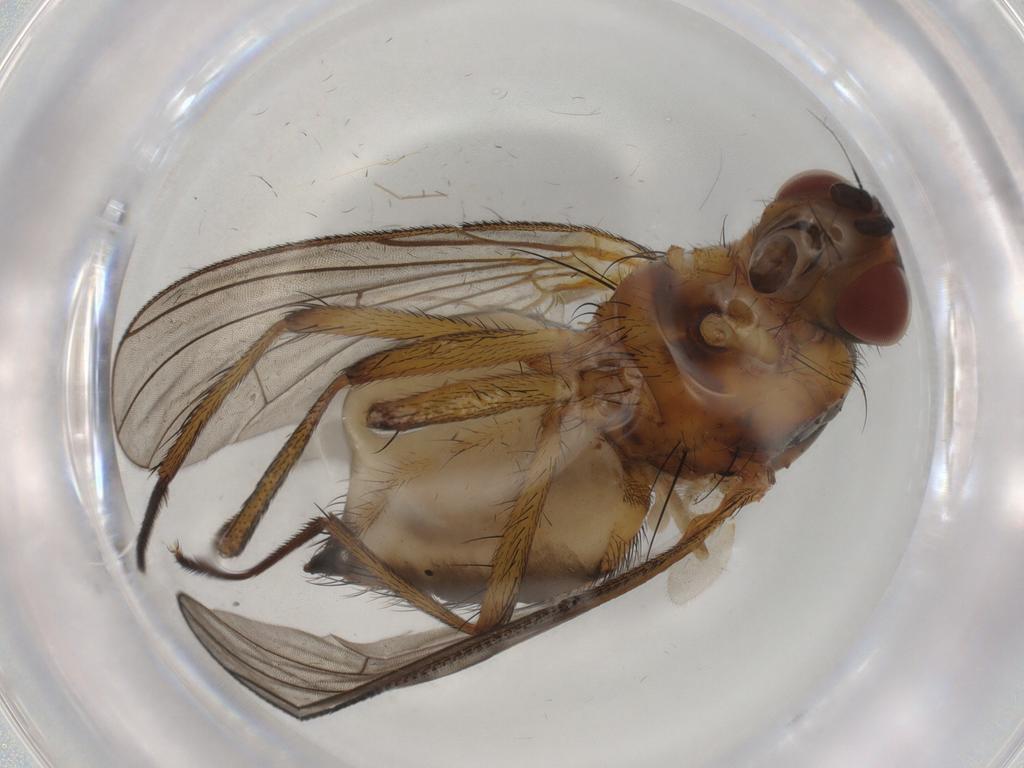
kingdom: Animalia
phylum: Arthropoda
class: Insecta
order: Diptera
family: Anthomyiidae
